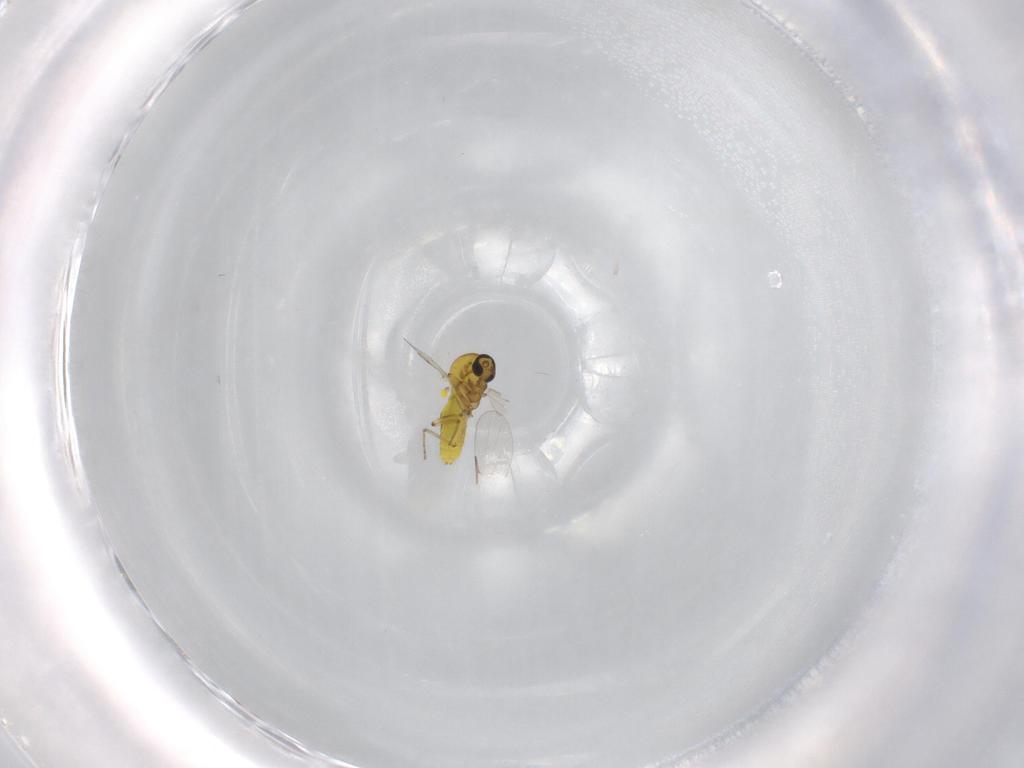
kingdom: Animalia
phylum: Arthropoda
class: Insecta
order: Diptera
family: Ceratopogonidae
